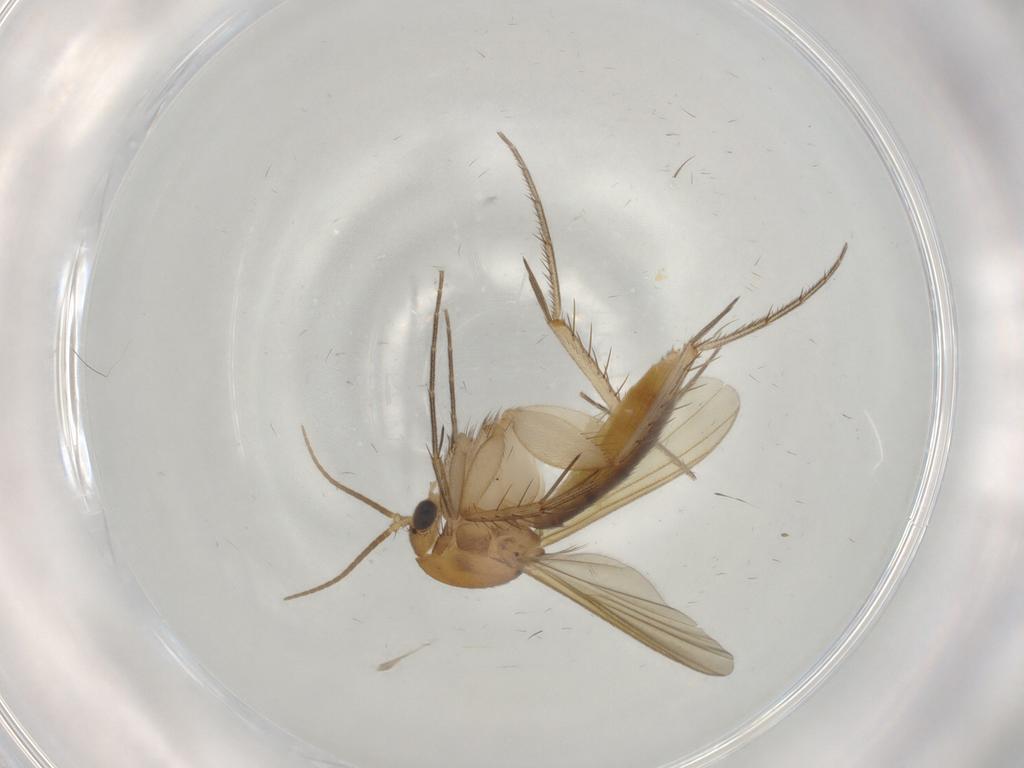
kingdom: Animalia
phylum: Arthropoda
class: Insecta
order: Diptera
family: Mycetophilidae
